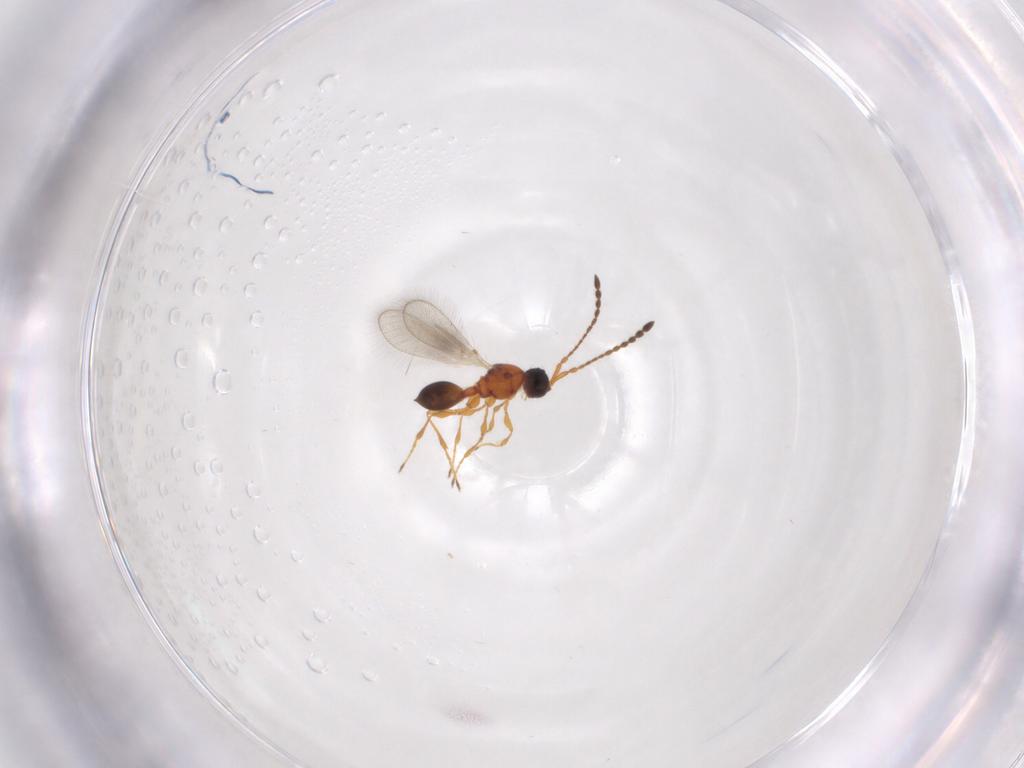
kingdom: Animalia
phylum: Arthropoda
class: Insecta
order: Hymenoptera
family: Diapriidae
